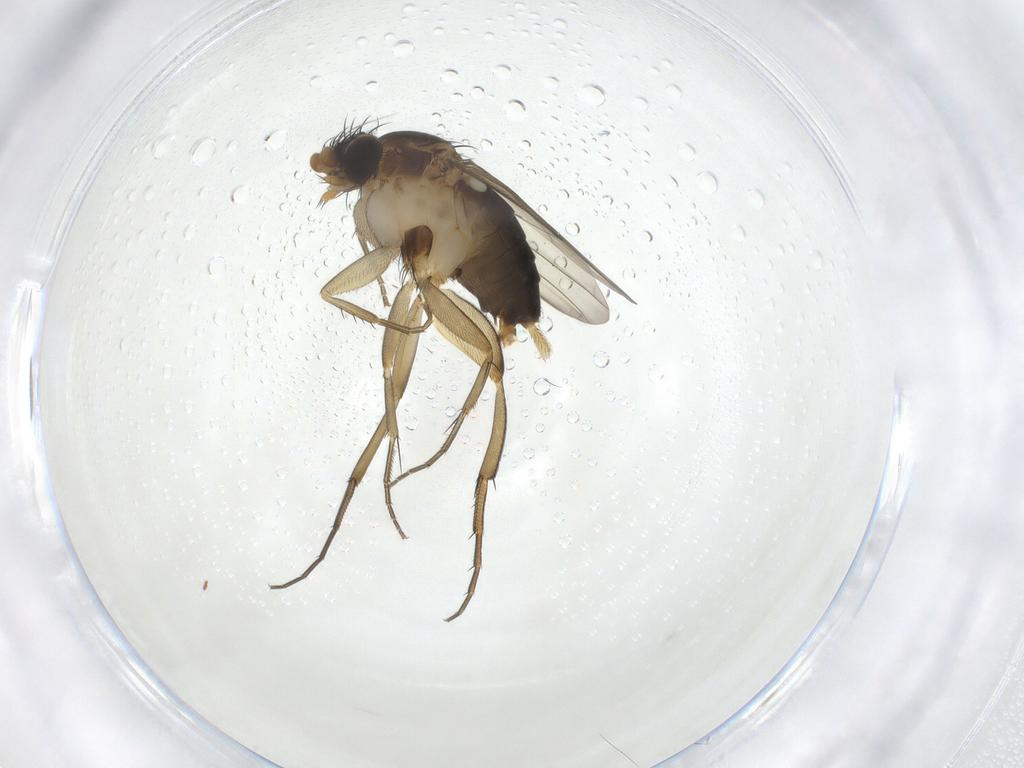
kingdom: Animalia
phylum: Arthropoda
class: Insecta
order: Diptera
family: Phoridae
